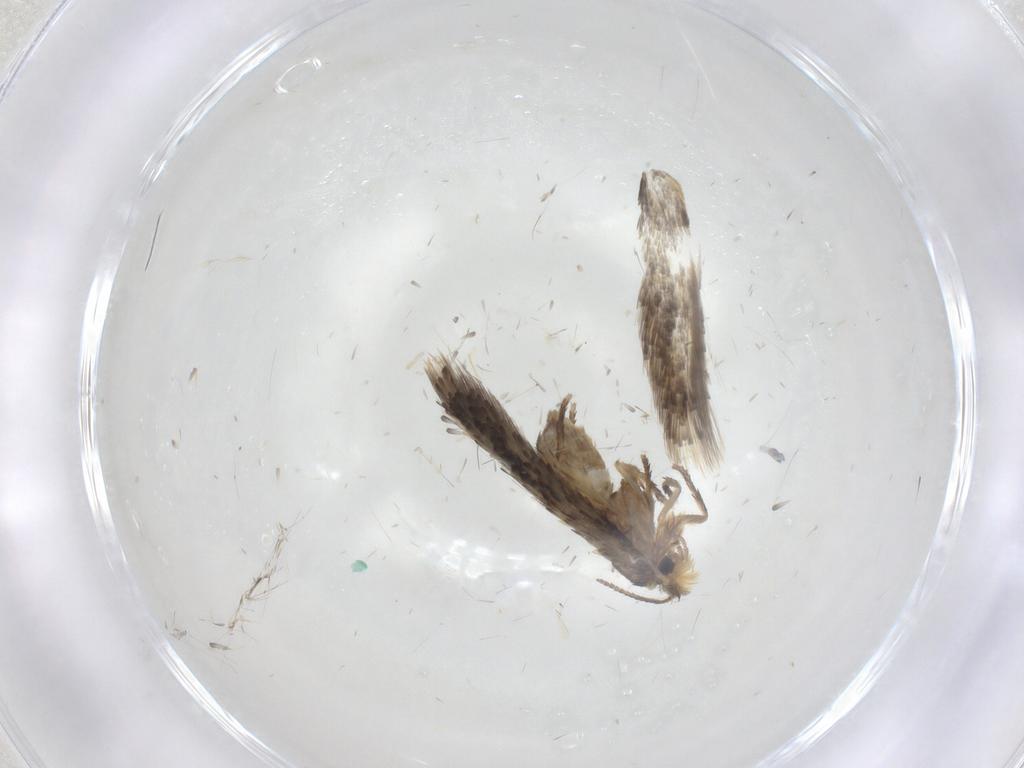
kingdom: Animalia
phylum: Arthropoda
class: Insecta
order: Lepidoptera
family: Nepticulidae
